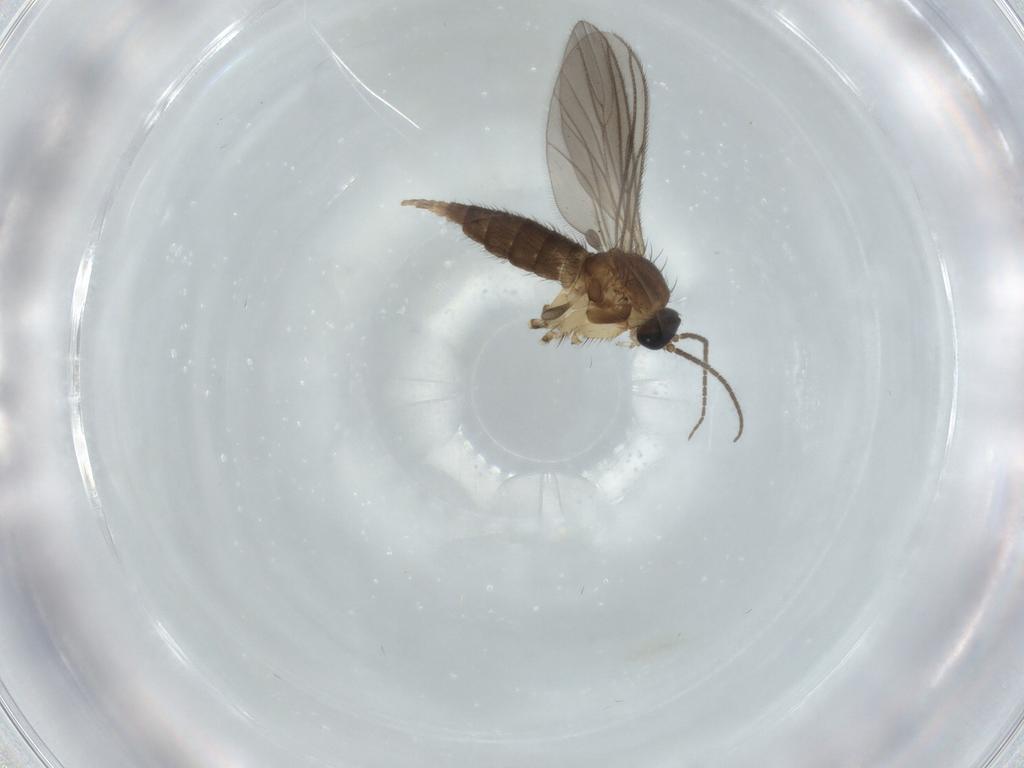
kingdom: Animalia
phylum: Arthropoda
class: Insecta
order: Diptera
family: Sciaridae
